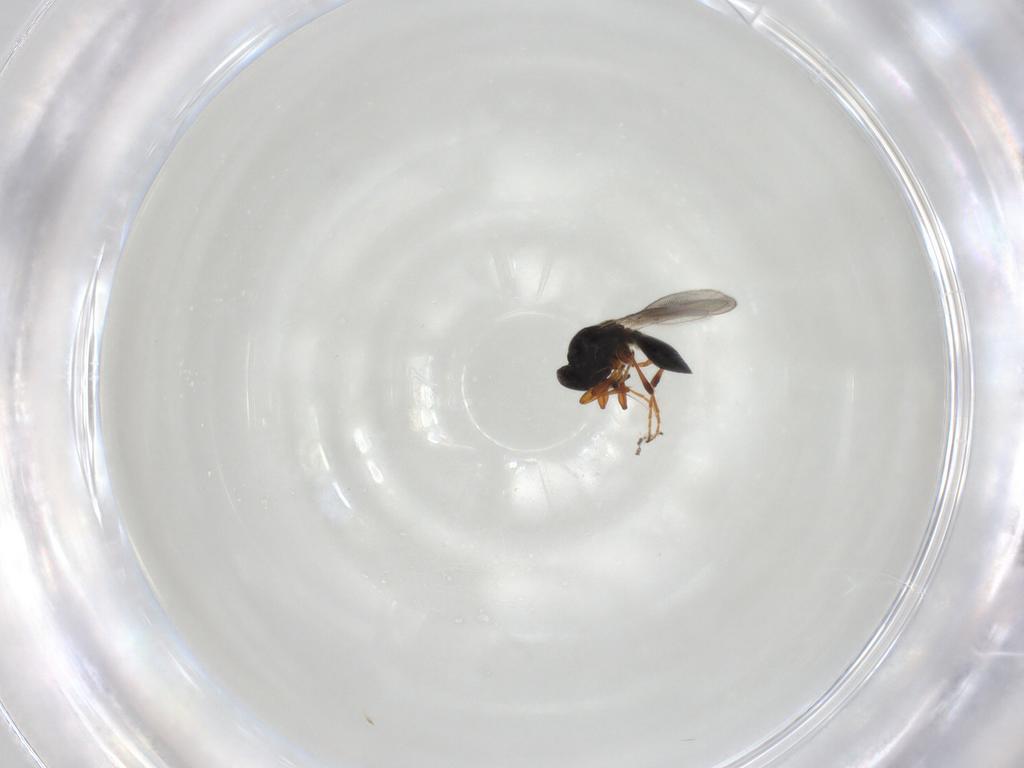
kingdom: Animalia
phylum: Arthropoda
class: Insecta
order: Hymenoptera
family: Platygastridae
